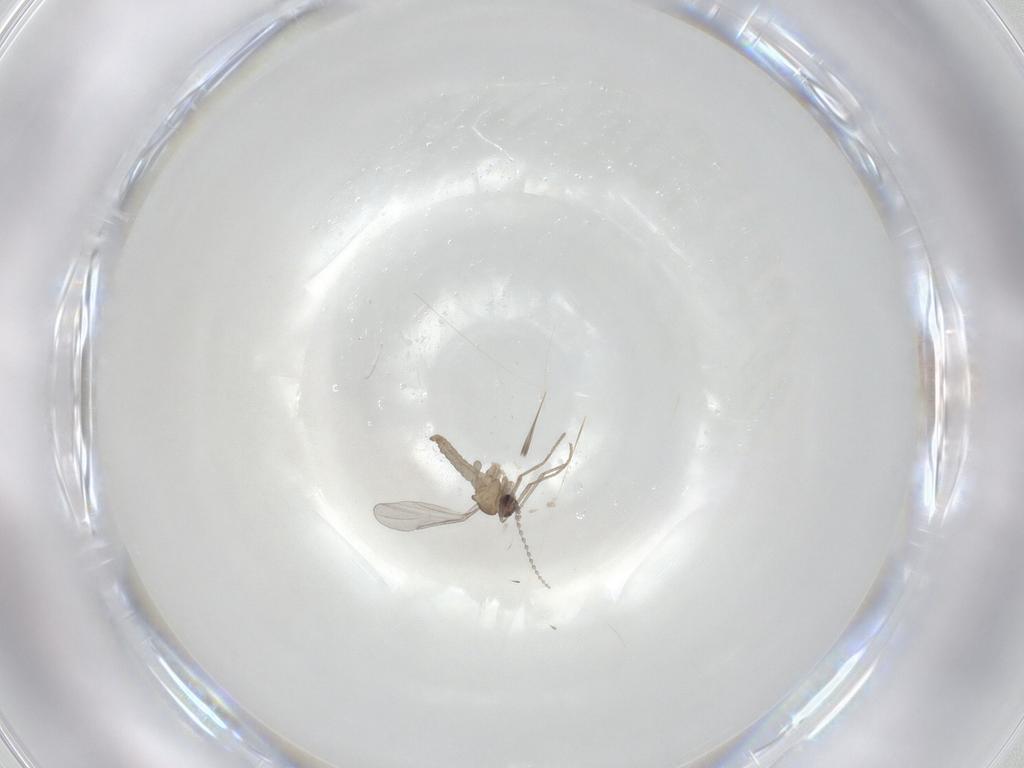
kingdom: Animalia
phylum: Arthropoda
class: Insecta
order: Diptera
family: Cecidomyiidae
